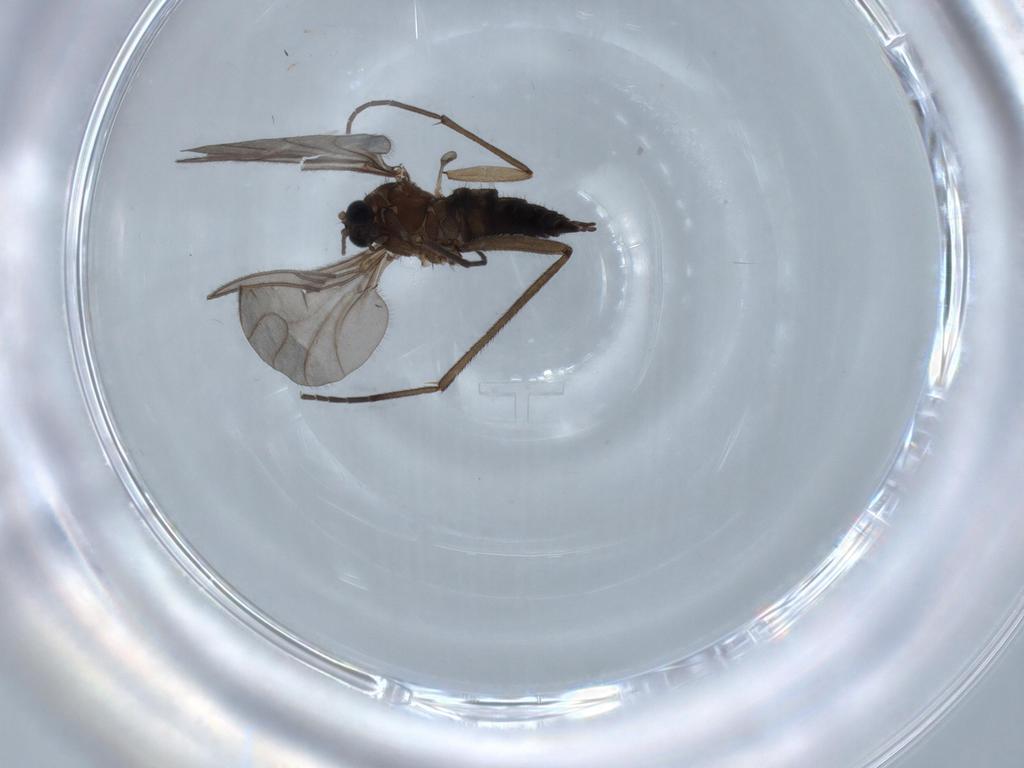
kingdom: Animalia
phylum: Arthropoda
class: Insecta
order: Diptera
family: Sciaridae
